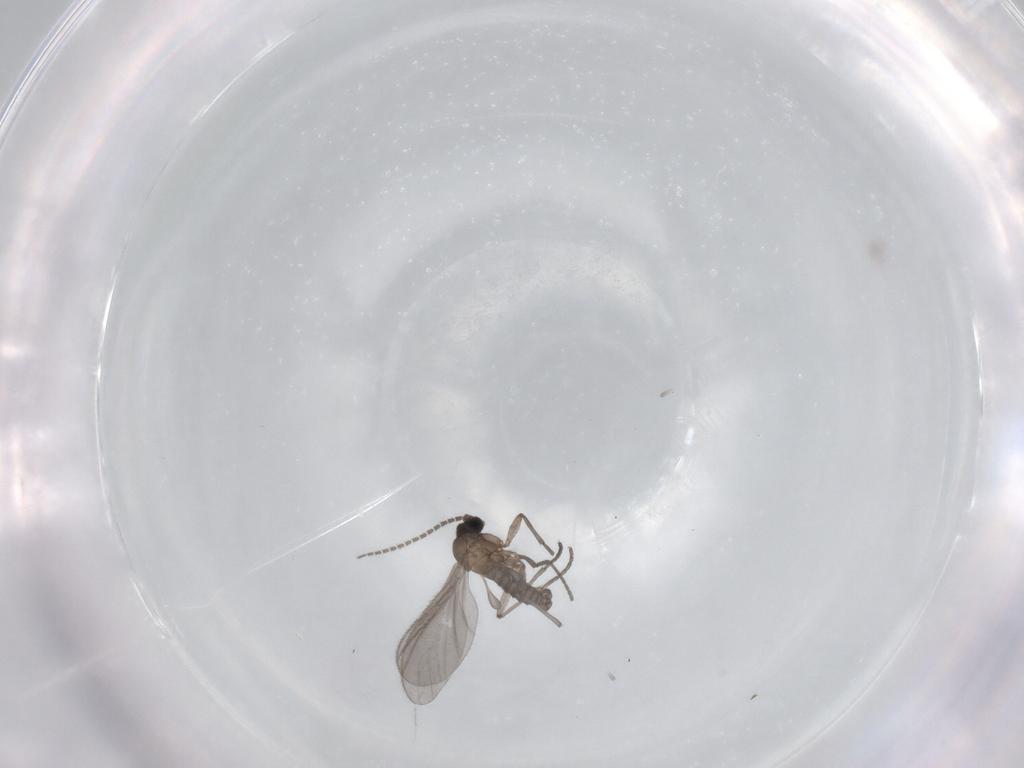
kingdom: Animalia
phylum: Arthropoda
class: Insecta
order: Diptera
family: Sciaridae
